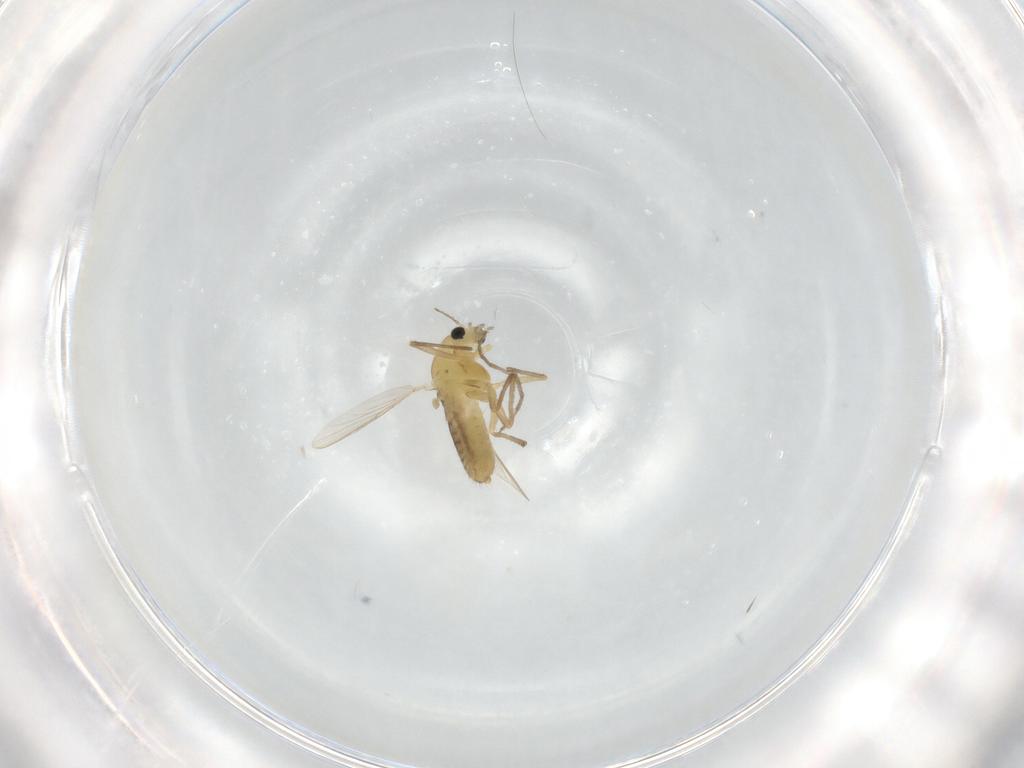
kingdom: Animalia
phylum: Arthropoda
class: Insecta
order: Diptera
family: Chironomidae
